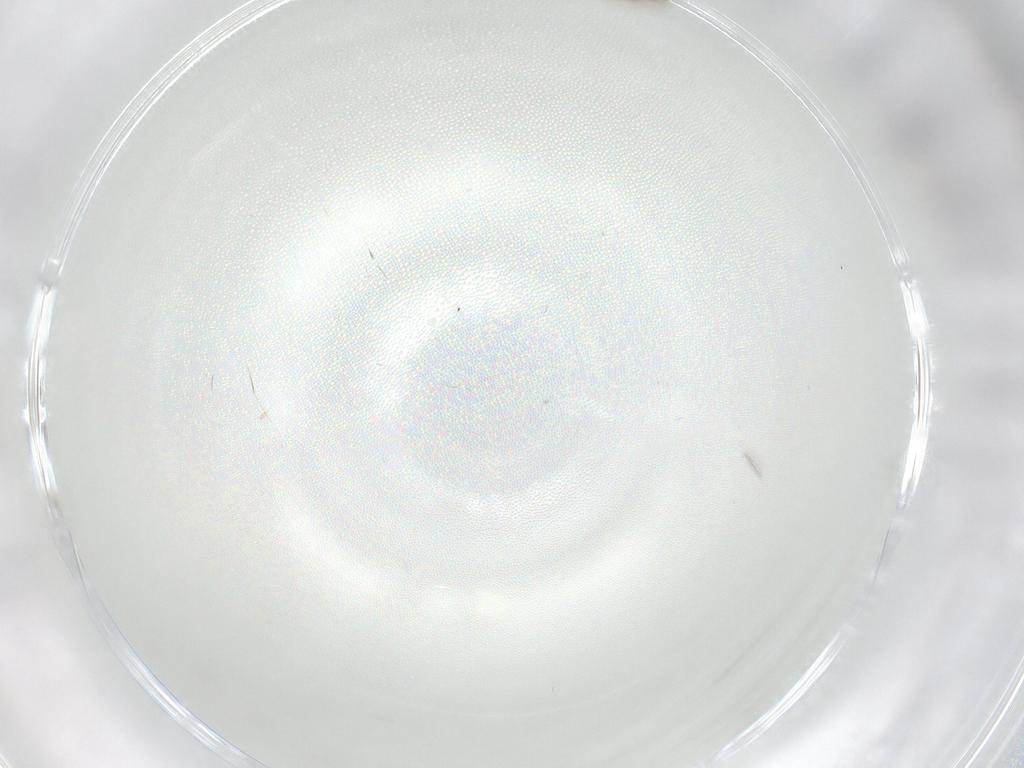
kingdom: Animalia
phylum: Arthropoda
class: Insecta
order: Diptera
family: Cecidomyiidae
